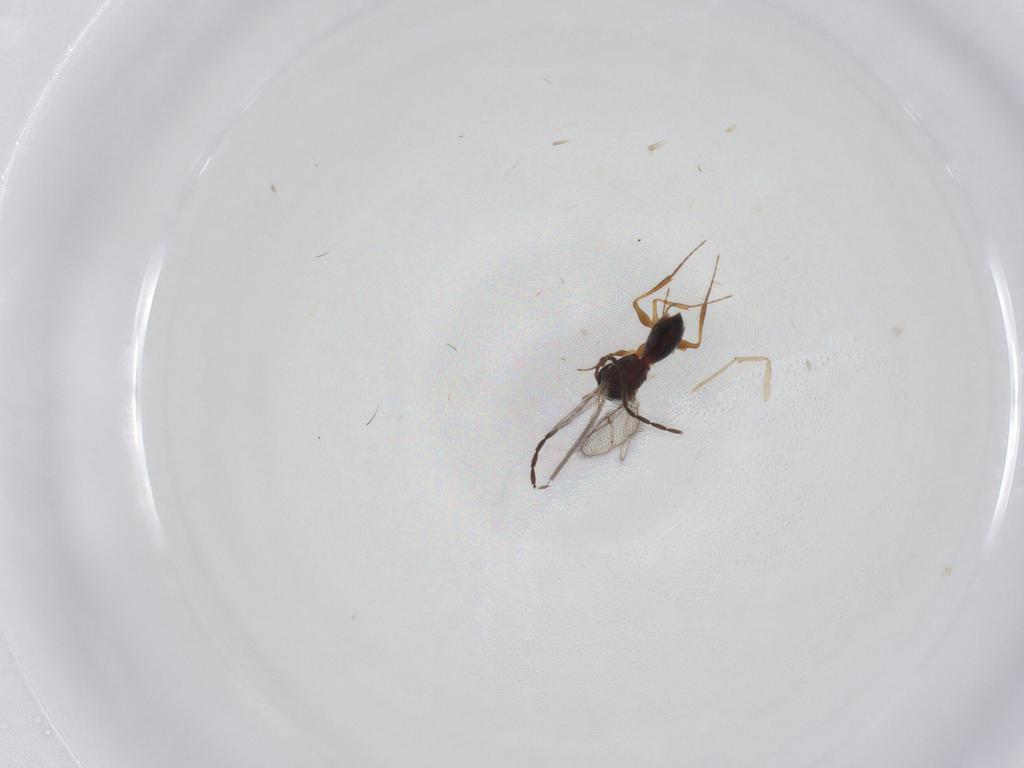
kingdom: Animalia
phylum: Arthropoda
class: Insecta
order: Hymenoptera
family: Figitidae
